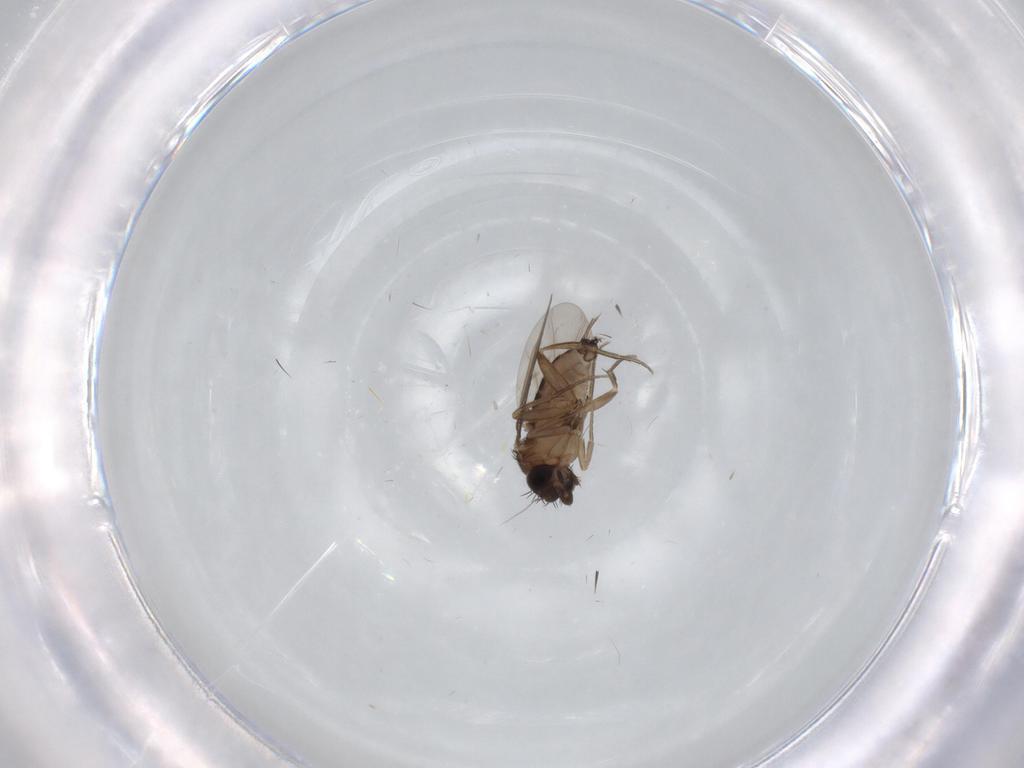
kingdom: Animalia
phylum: Arthropoda
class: Insecta
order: Diptera
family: Phoridae
